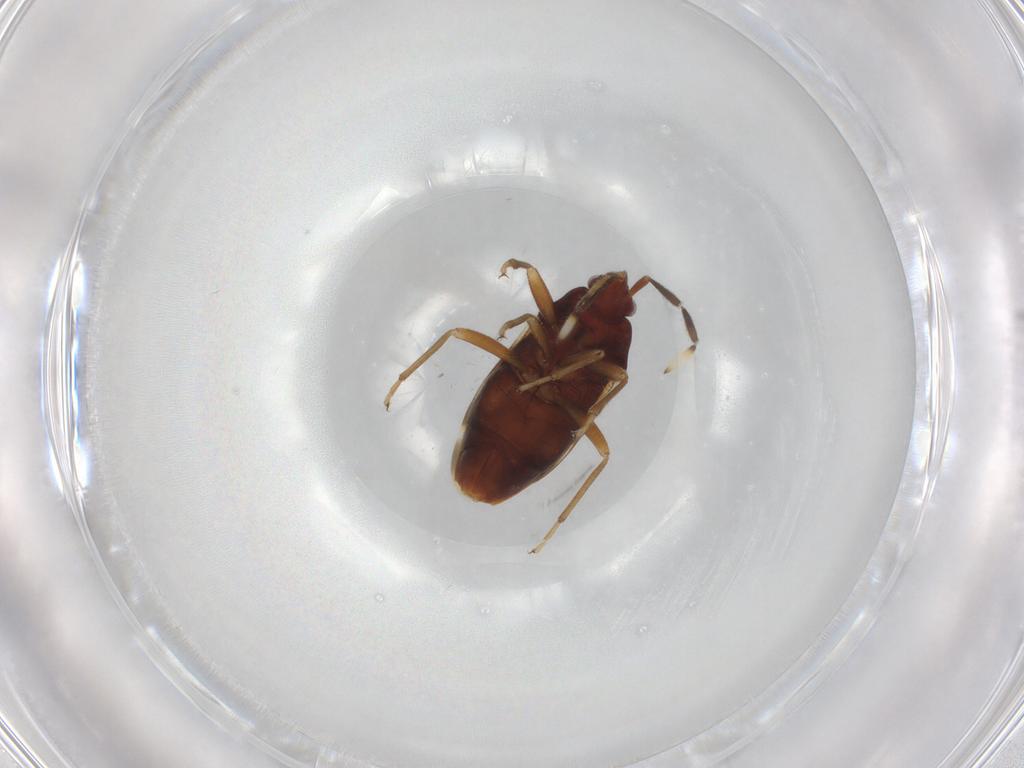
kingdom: Animalia
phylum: Arthropoda
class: Insecta
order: Hemiptera
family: Rhyparochromidae
